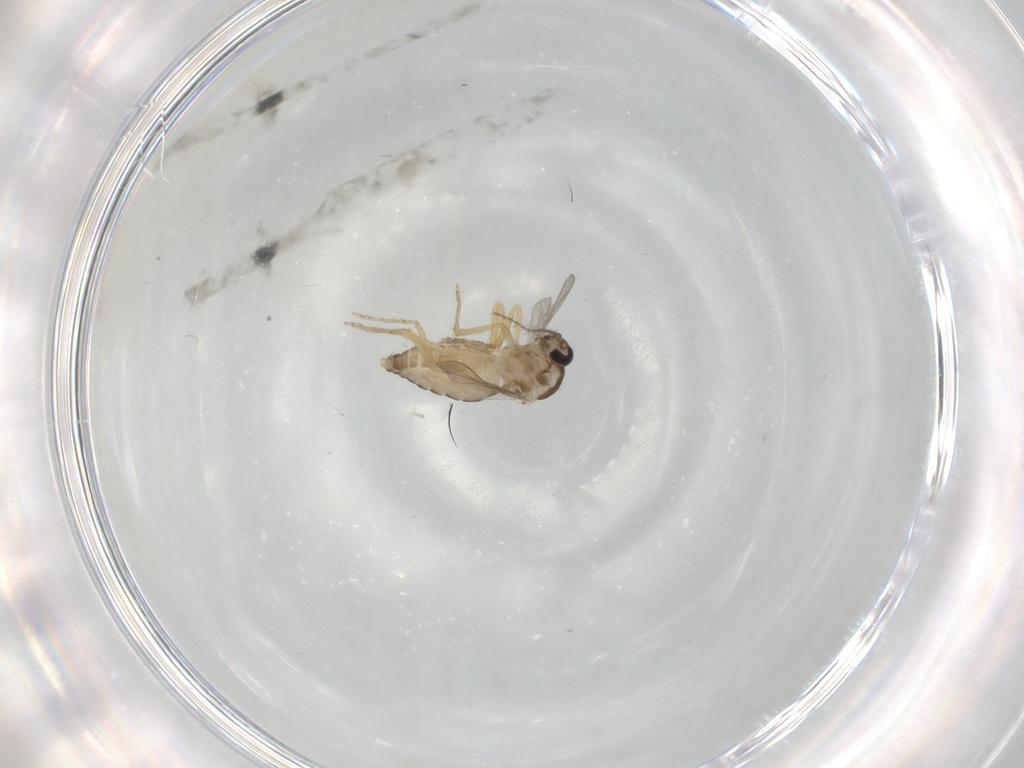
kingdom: Animalia
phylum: Arthropoda
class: Insecta
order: Diptera
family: Ceratopogonidae
